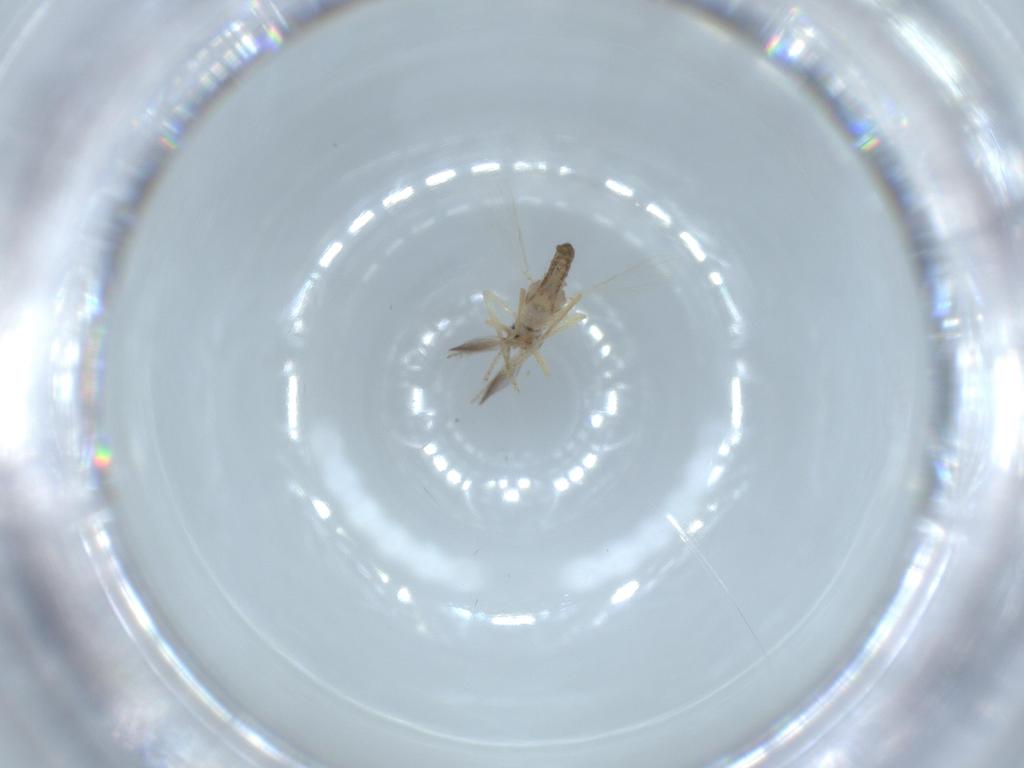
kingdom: Animalia
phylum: Arthropoda
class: Insecta
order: Diptera
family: Ceratopogonidae
